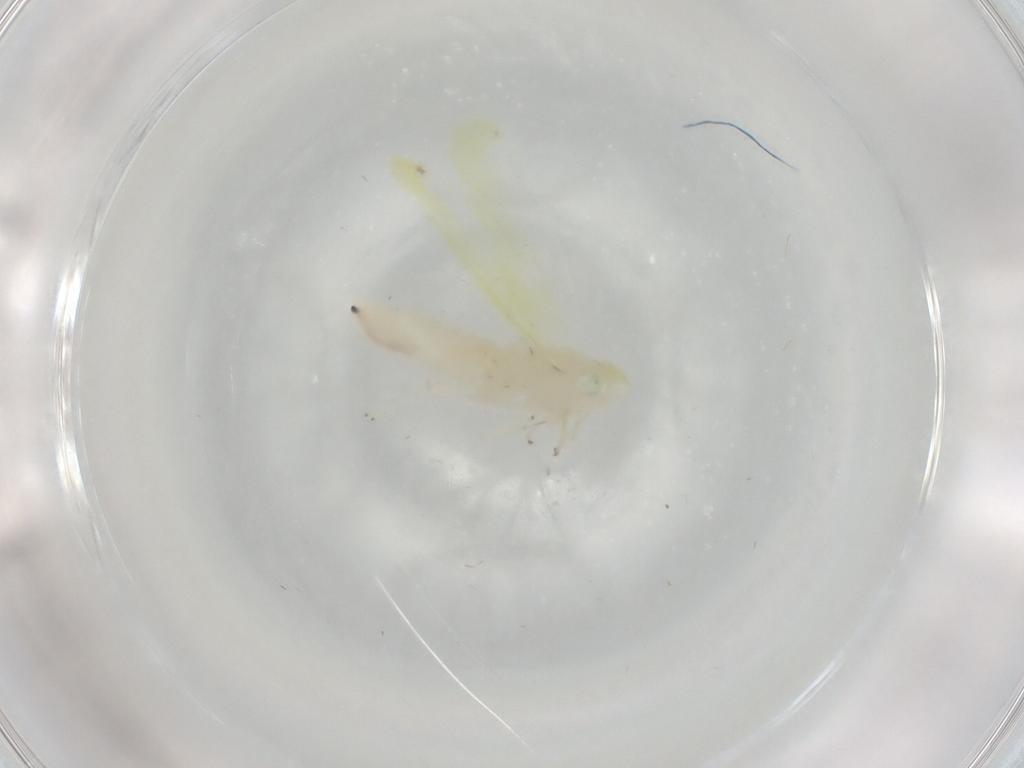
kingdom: Animalia
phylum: Arthropoda
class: Insecta
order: Hemiptera
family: Cicadellidae
